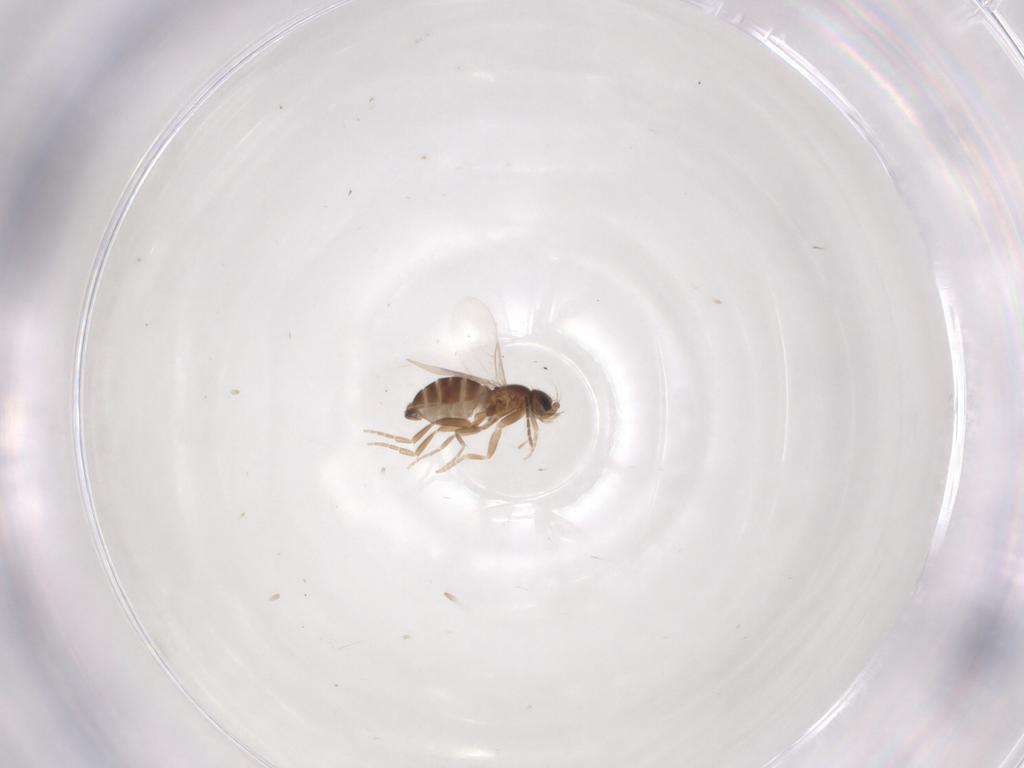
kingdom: Animalia
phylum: Arthropoda
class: Insecta
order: Diptera
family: Phoridae
